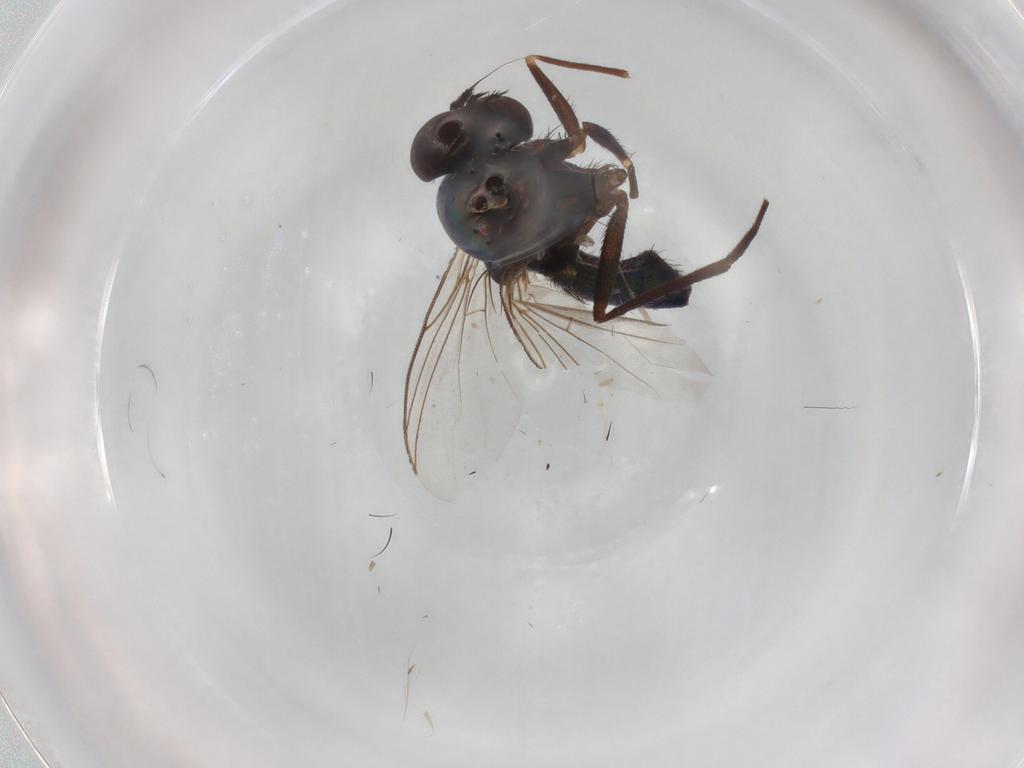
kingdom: Animalia
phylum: Arthropoda
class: Insecta
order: Diptera
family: Dolichopodidae
